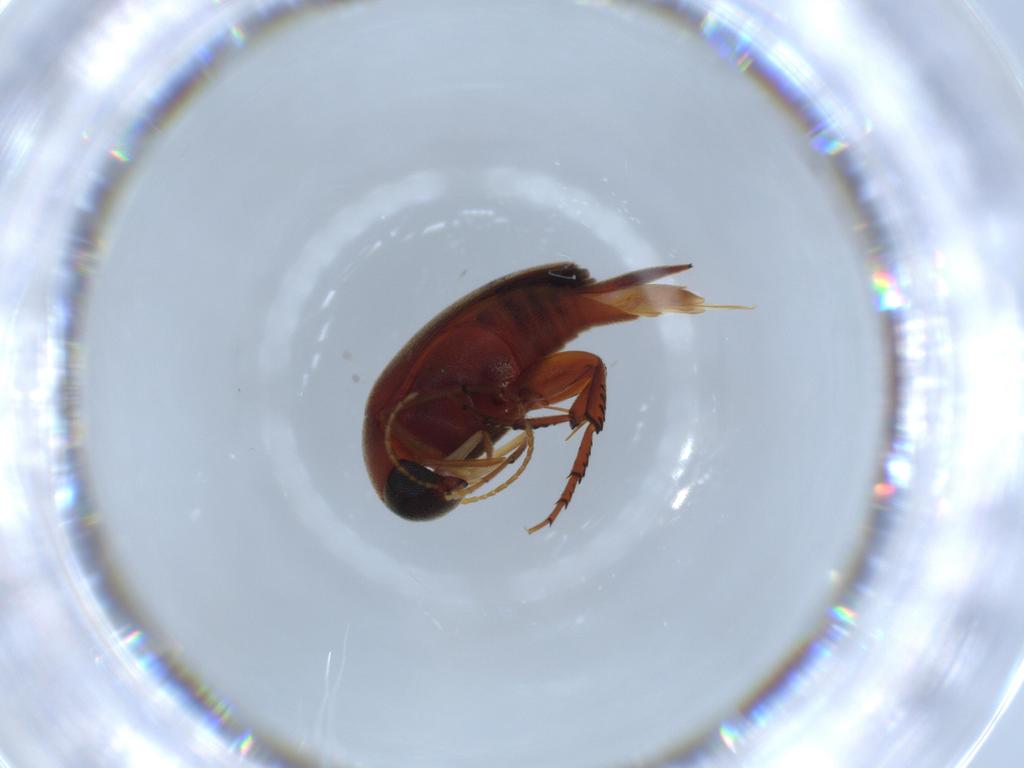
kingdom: Animalia
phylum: Arthropoda
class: Insecta
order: Coleoptera
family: Mordellidae
